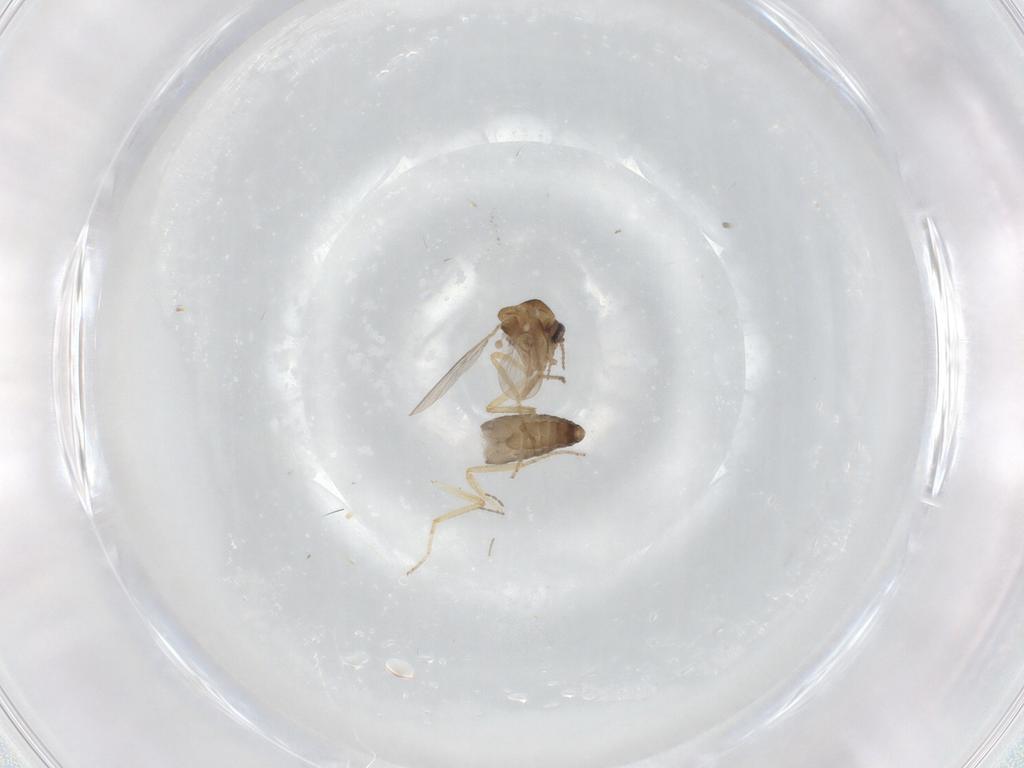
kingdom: Animalia
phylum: Arthropoda
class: Insecta
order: Diptera
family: Ceratopogonidae
